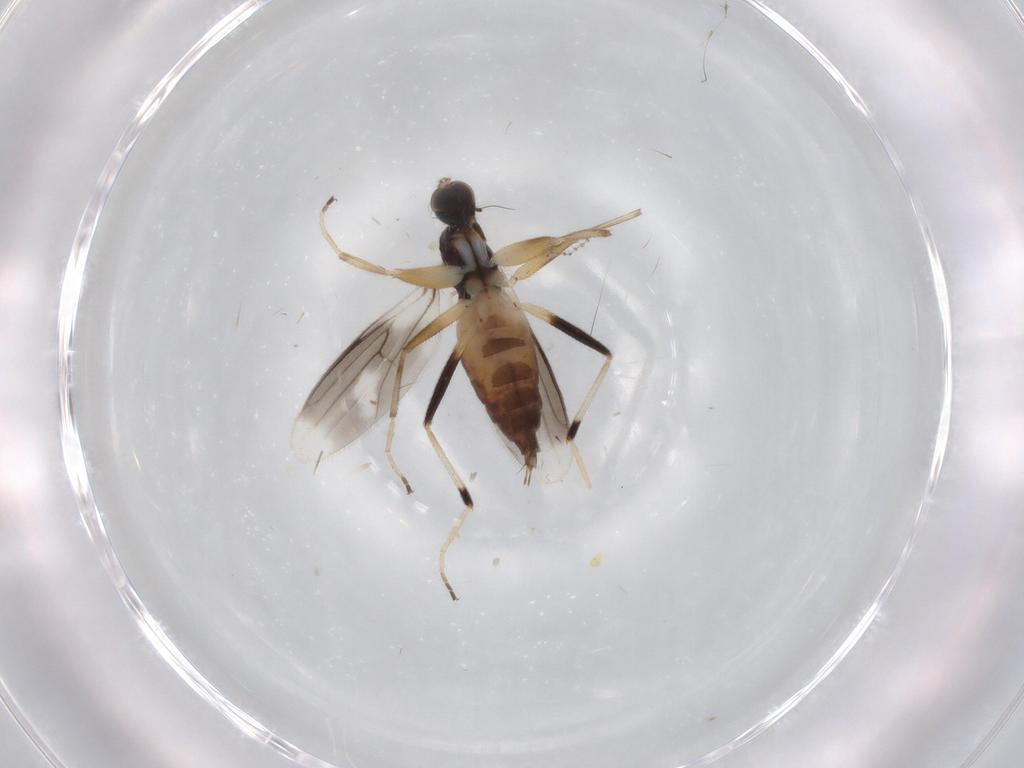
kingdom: Animalia
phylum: Arthropoda
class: Insecta
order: Diptera
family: Hybotidae
